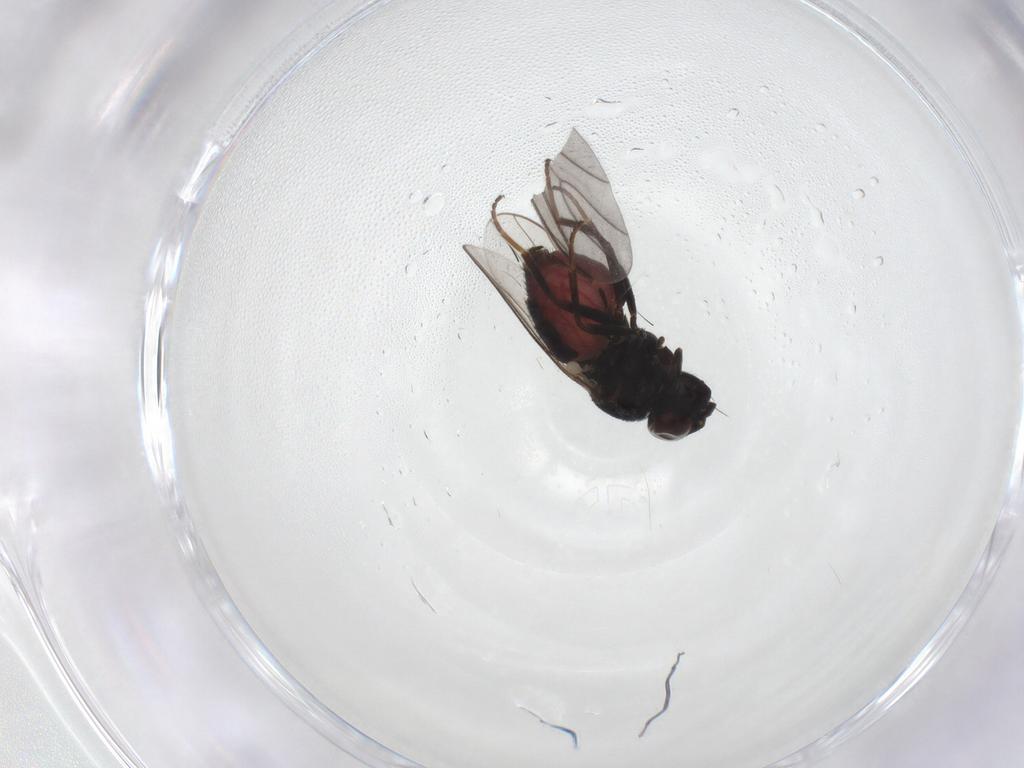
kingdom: Animalia
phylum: Arthropoda
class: Insecta
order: Diptera
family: Chloropidae
